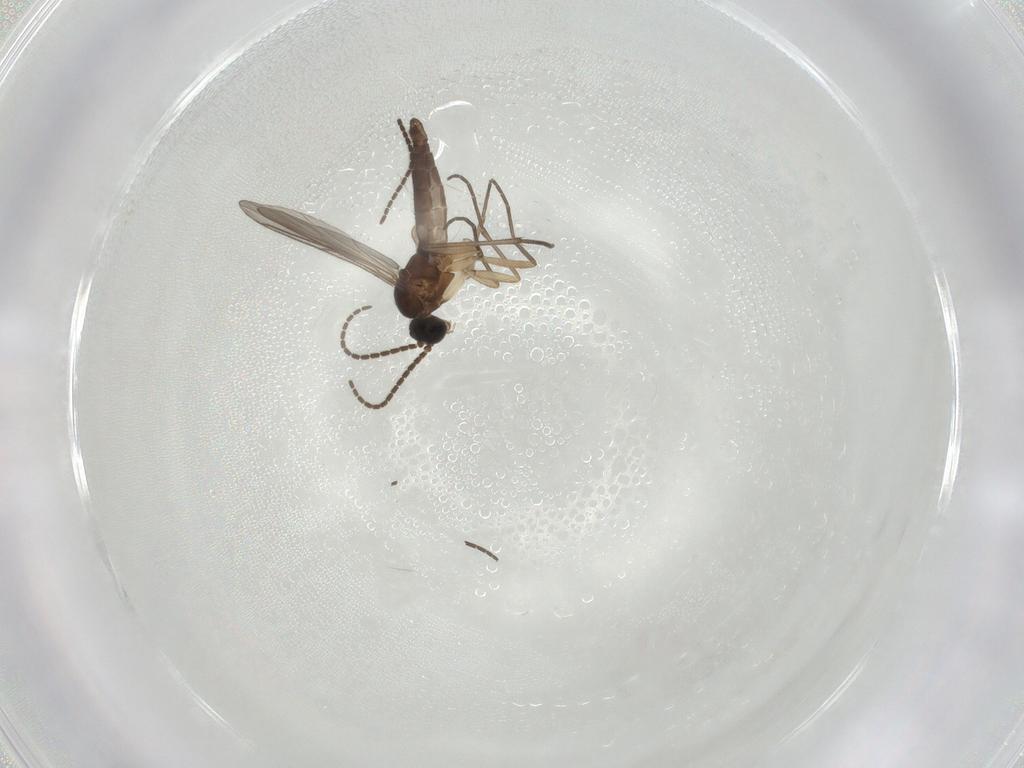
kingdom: Animalia
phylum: Arthropoda
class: Insecta
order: Diptera
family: Sciaridae
